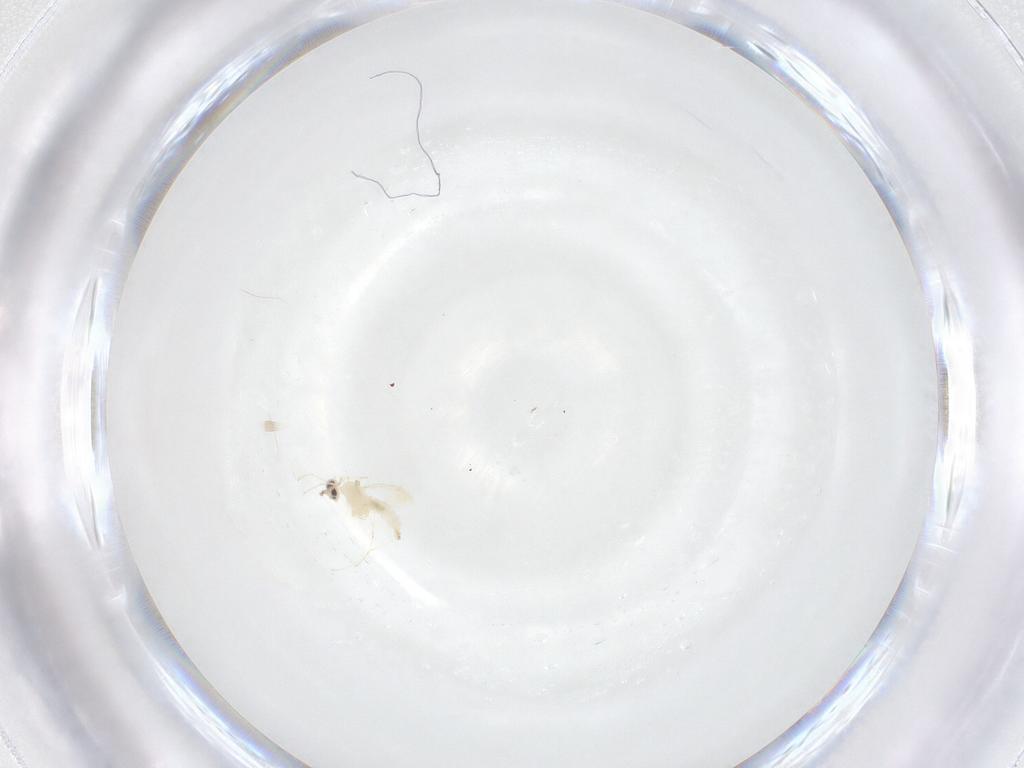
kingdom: Animalia
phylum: Arthropoda
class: Insecta
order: Diptera
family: Cecidomyiidae
